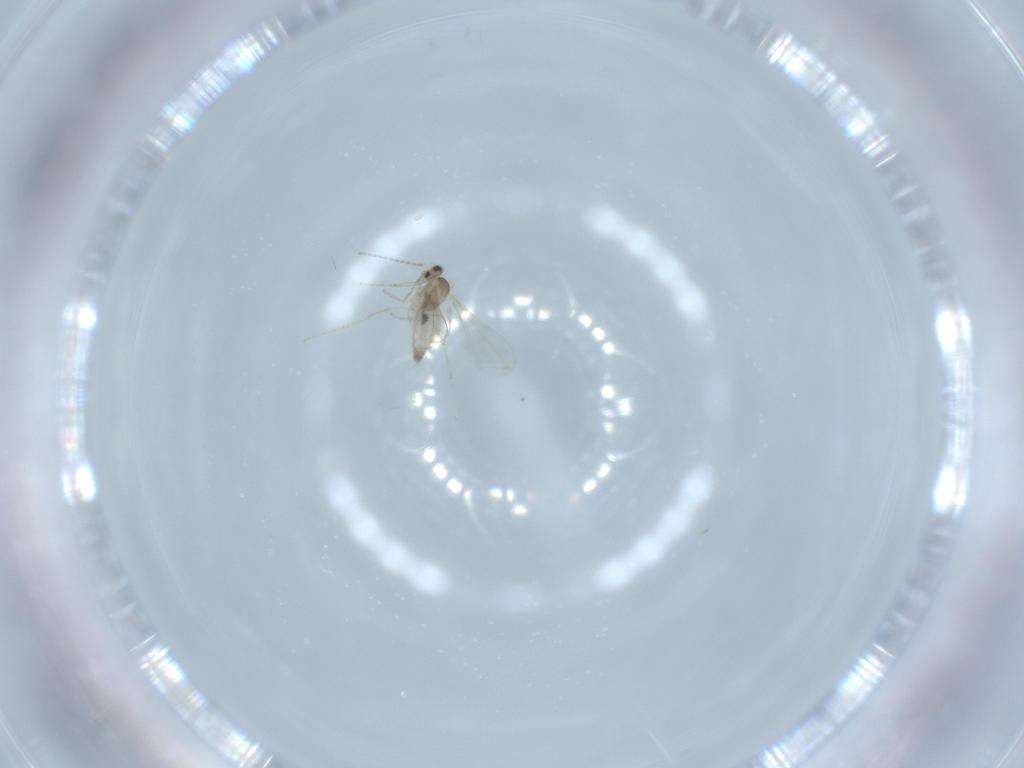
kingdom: Animalia
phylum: Arthropoda
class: Insecta
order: Diptera
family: Cecidomyiidae
